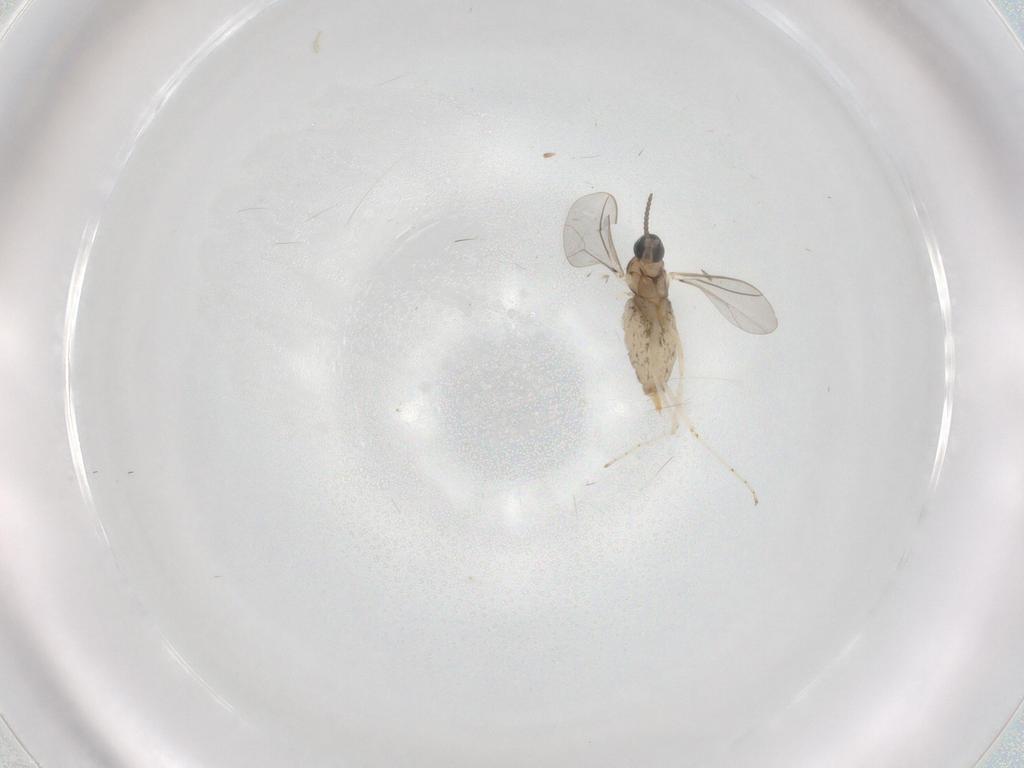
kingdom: Animalia
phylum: Arthropoda
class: Insecta
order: Diptera
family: Cecidomyiidae
